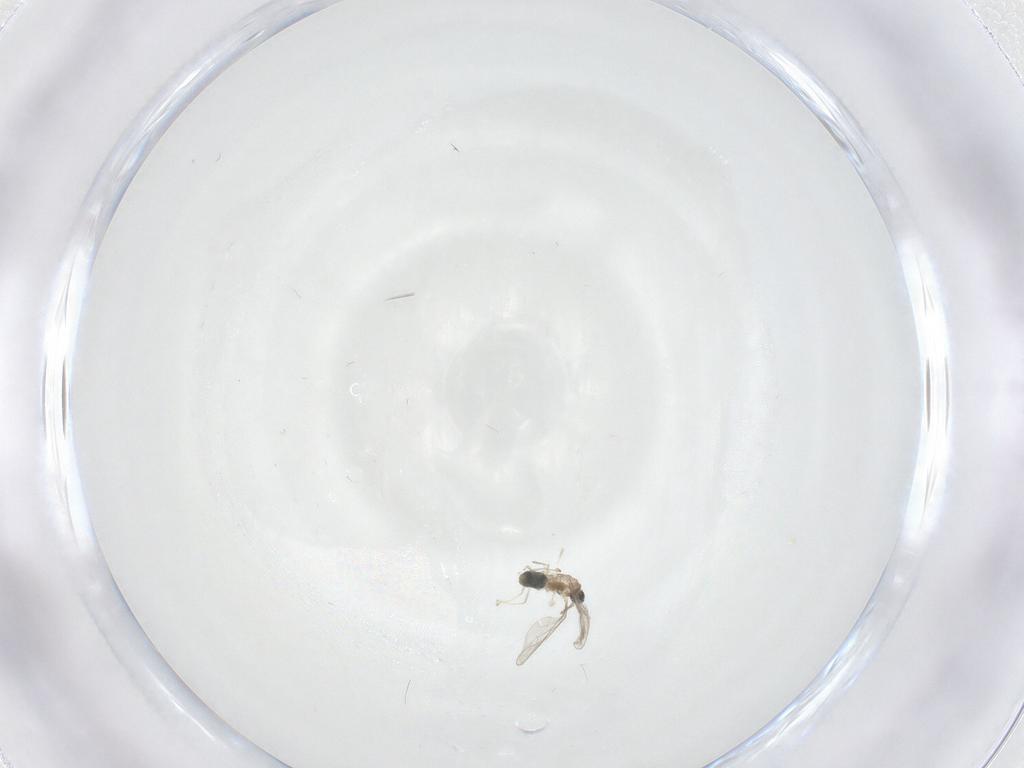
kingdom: Animalia
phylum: Arthropoda
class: Insecta
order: Diptera
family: Cecidomyiidae
